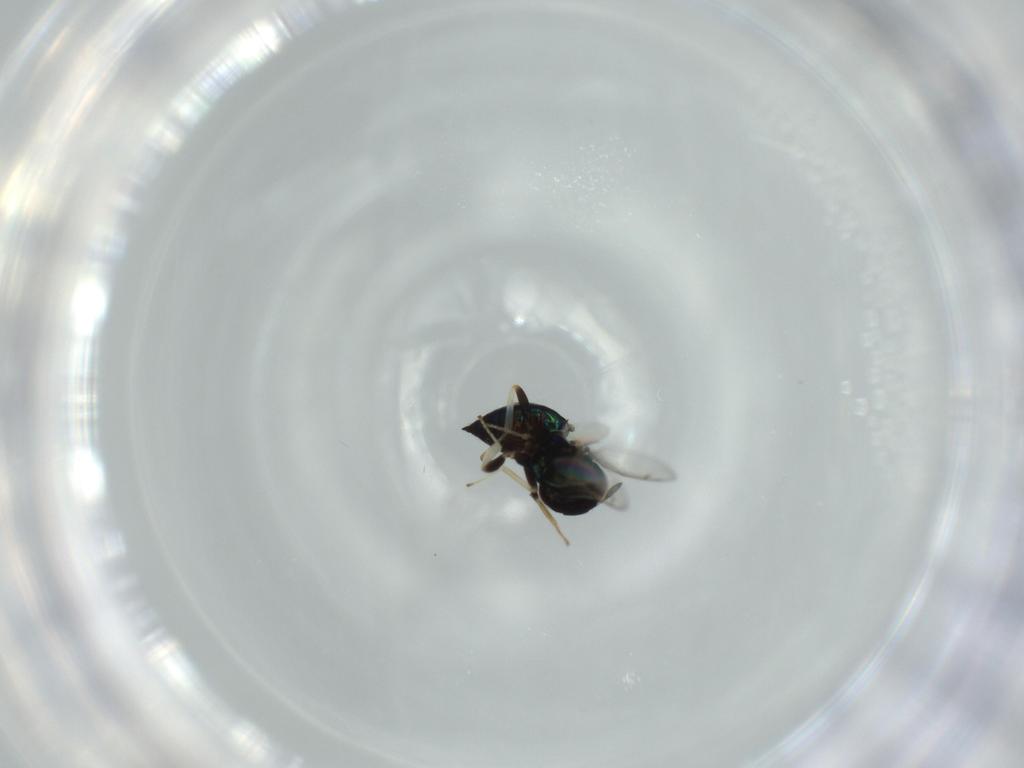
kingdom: Animalia
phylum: Arthropoda
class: Insecta
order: Hymenoptera
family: Pteromalidae
